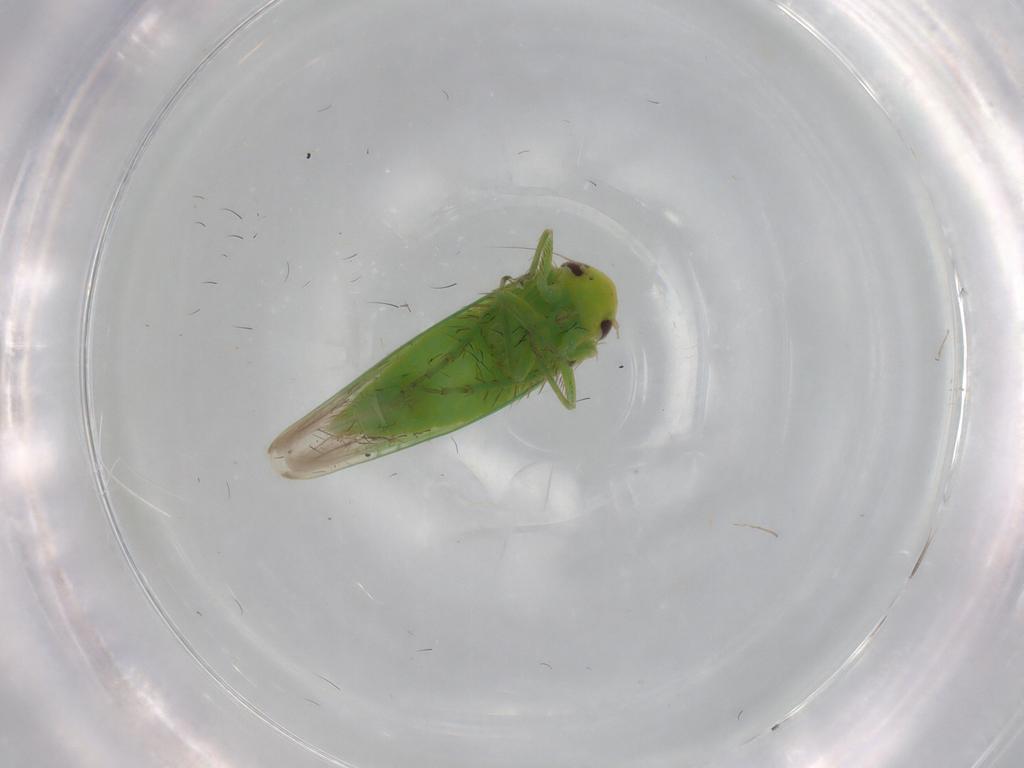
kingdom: Animalia
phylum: Arthropoda
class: Insecta
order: Hemiptera
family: Cicadellidae
